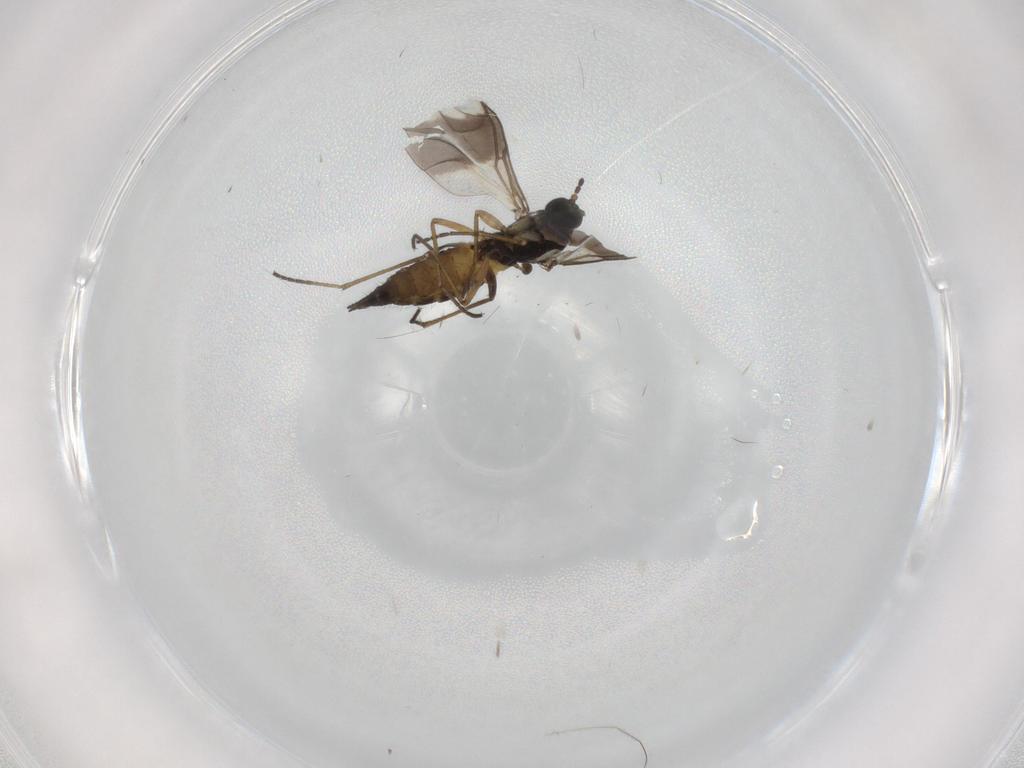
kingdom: Animalia
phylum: Arthropoda
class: Insecta
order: Diptera
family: Sciaridae
